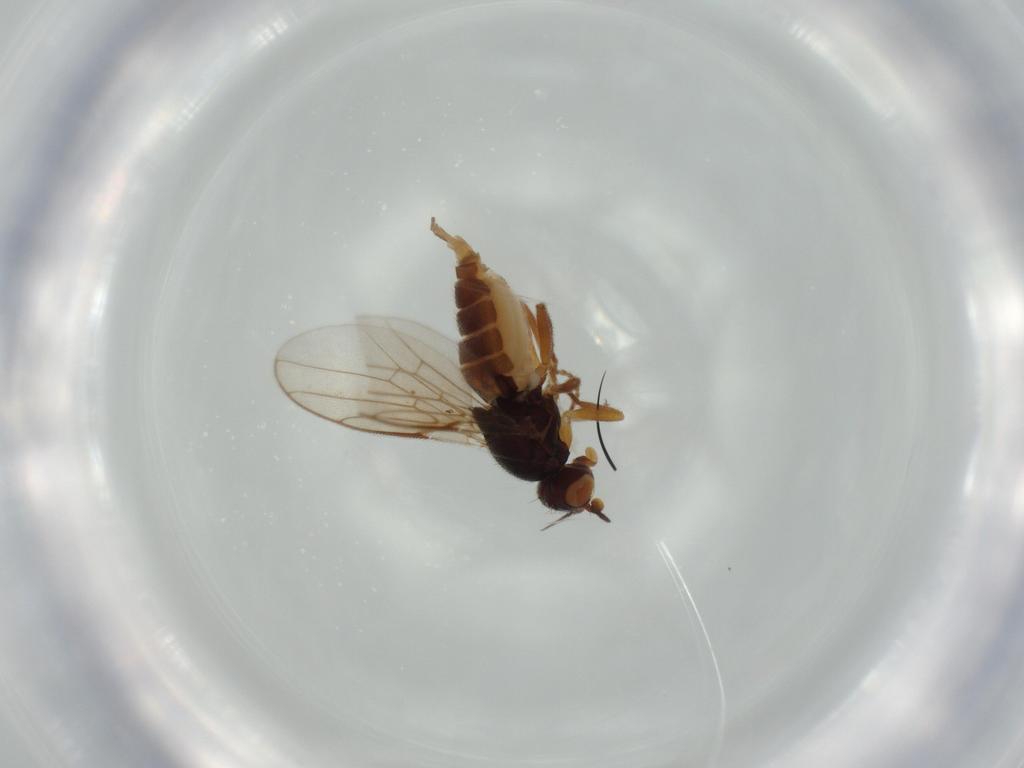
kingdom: Animalia
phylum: Arthropoda
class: Insecta
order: Diptera
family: Chloropidae
